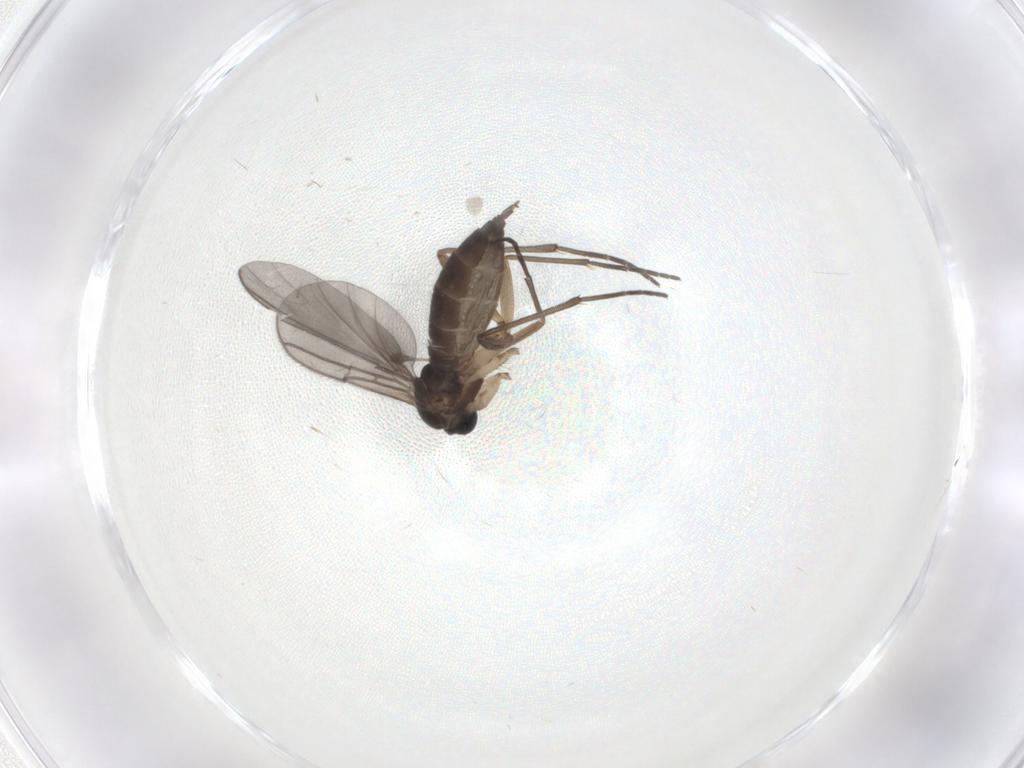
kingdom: Animalia
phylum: Arthropoda
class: Insecta
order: Diptera
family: Sciaridae
